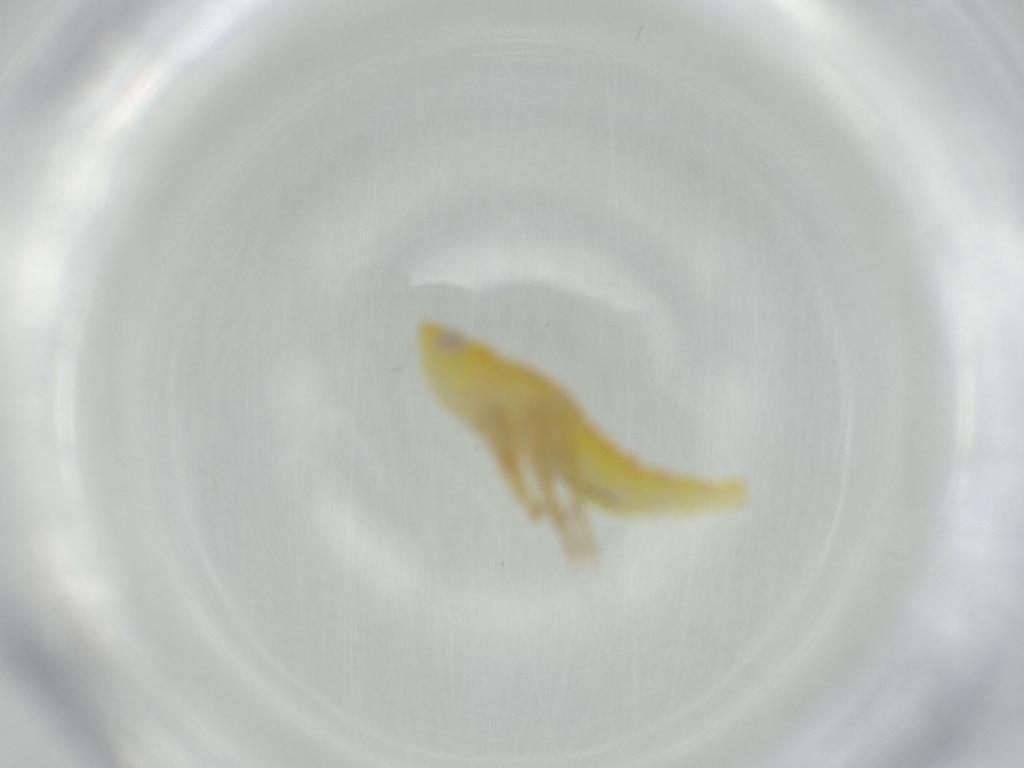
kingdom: Animalia
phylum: Arthropoda
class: Insecta
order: Hemiptera
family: Tropiduchidae
